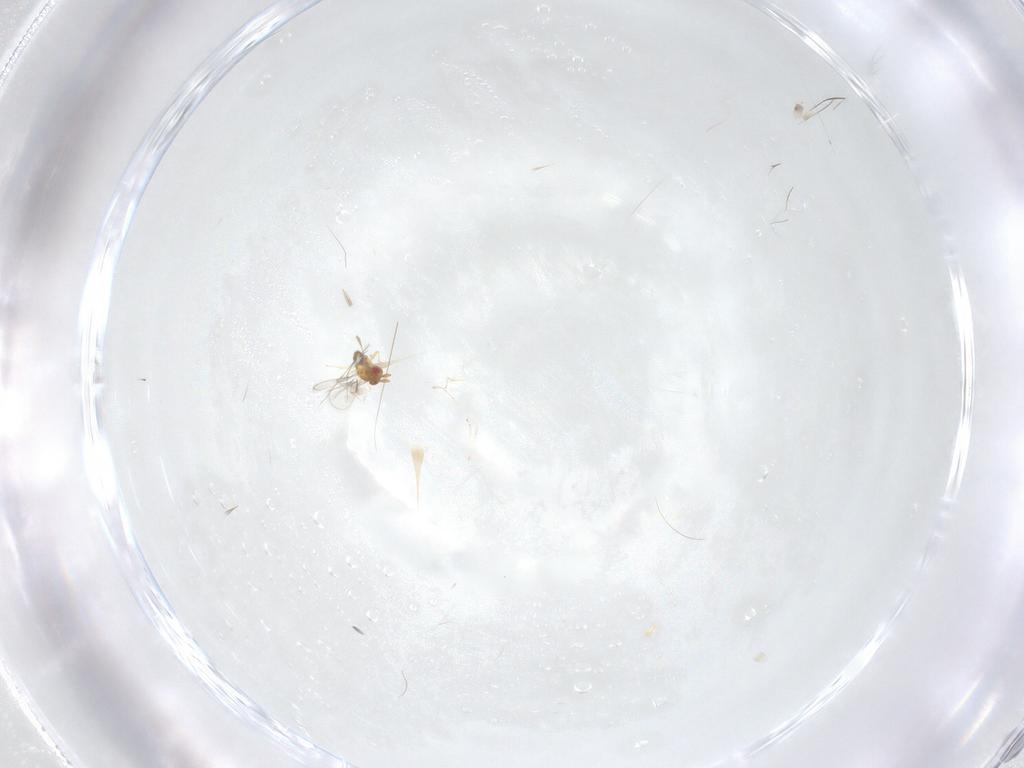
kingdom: Animalia
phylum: Arthropoda
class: Insecta
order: Hymenoptera
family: Trichogrammatidae
